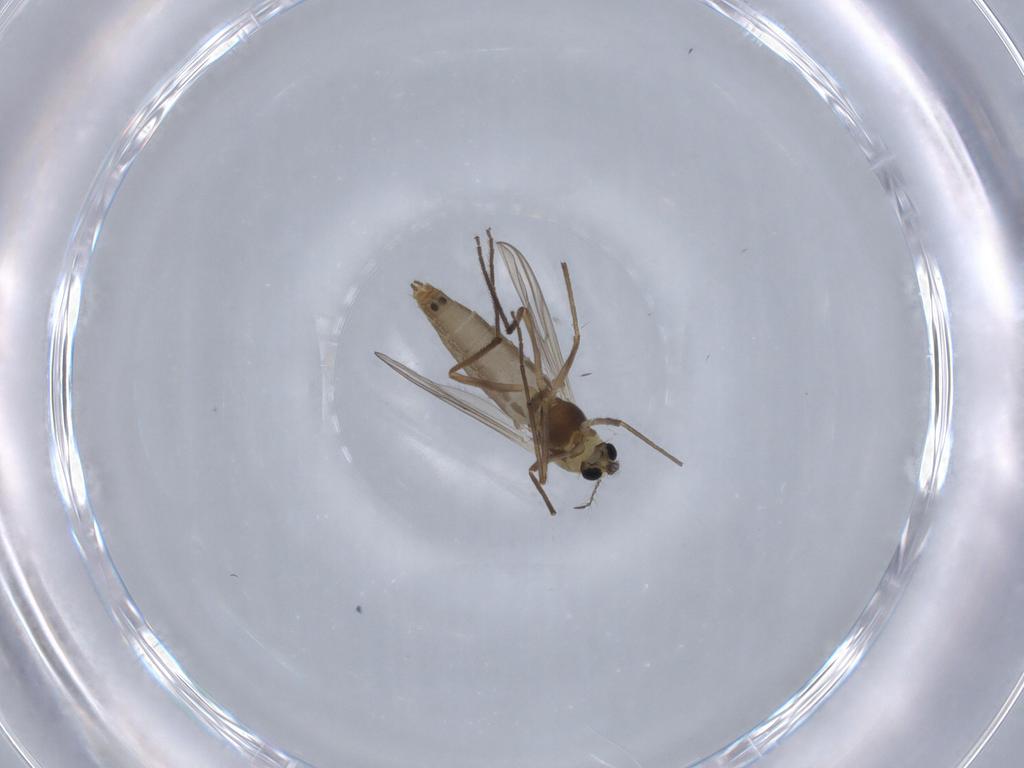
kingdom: Animalia
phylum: Arthropoda
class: Insecta
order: Diptera
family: Chironomidae
